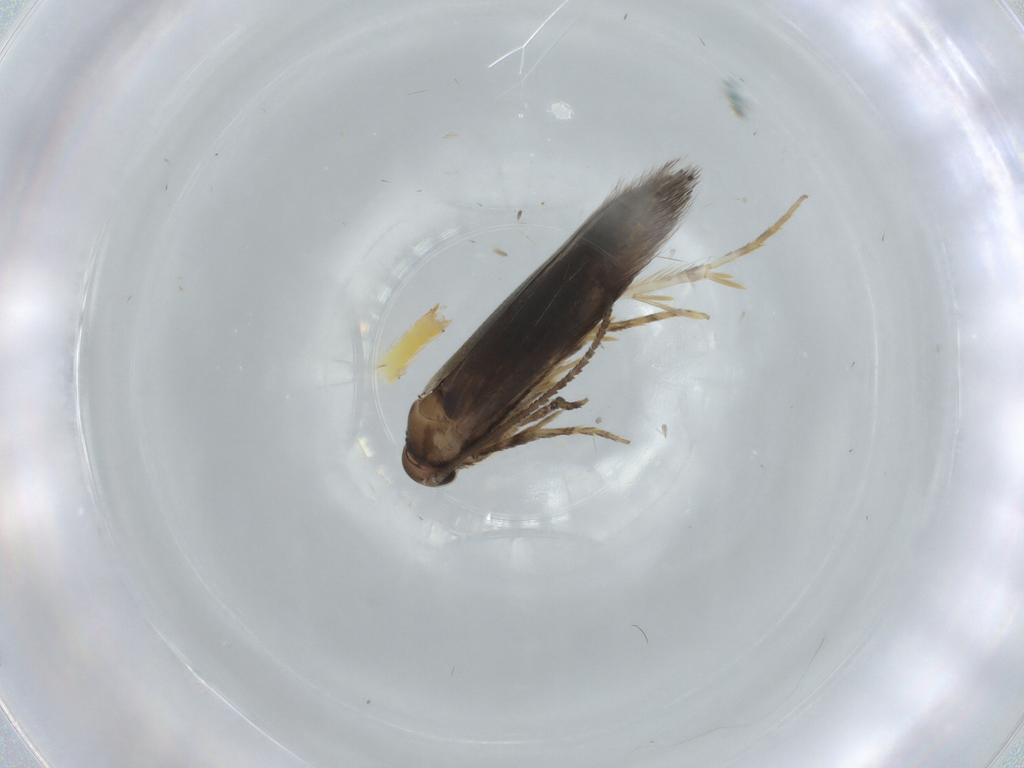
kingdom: Animalia
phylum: Arthropoda
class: Insecta
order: Lepidoptera
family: Elachistidae
